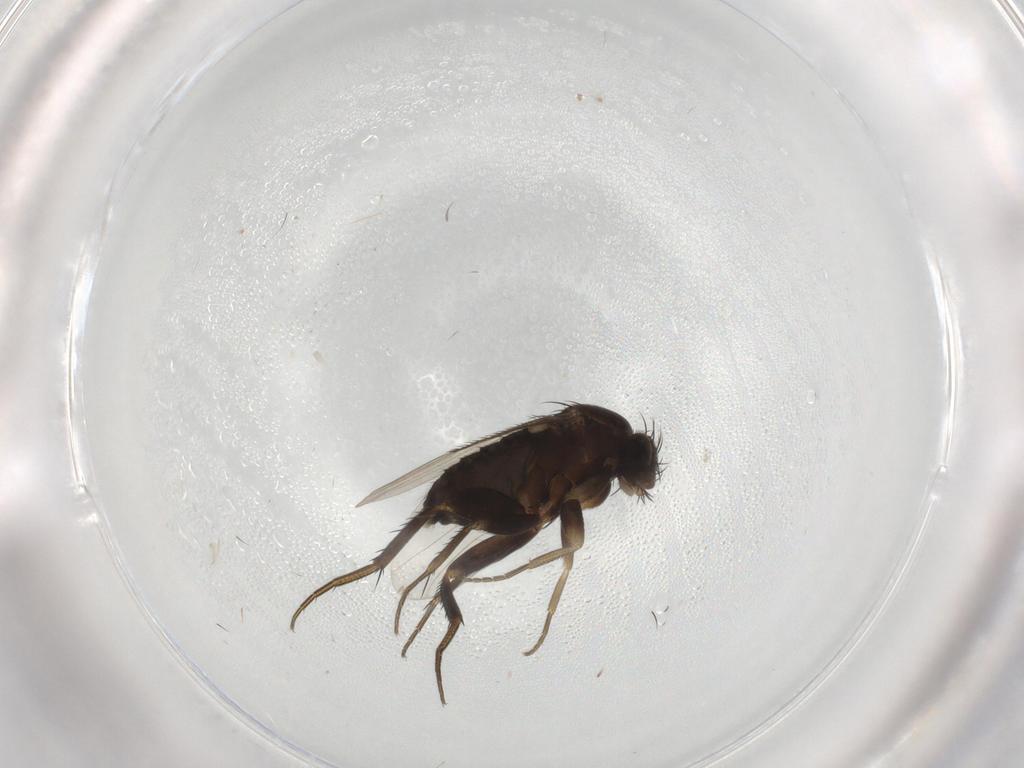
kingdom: Animalia
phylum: Arthropoda
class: Insecta
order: Diptera
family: Phoridae
